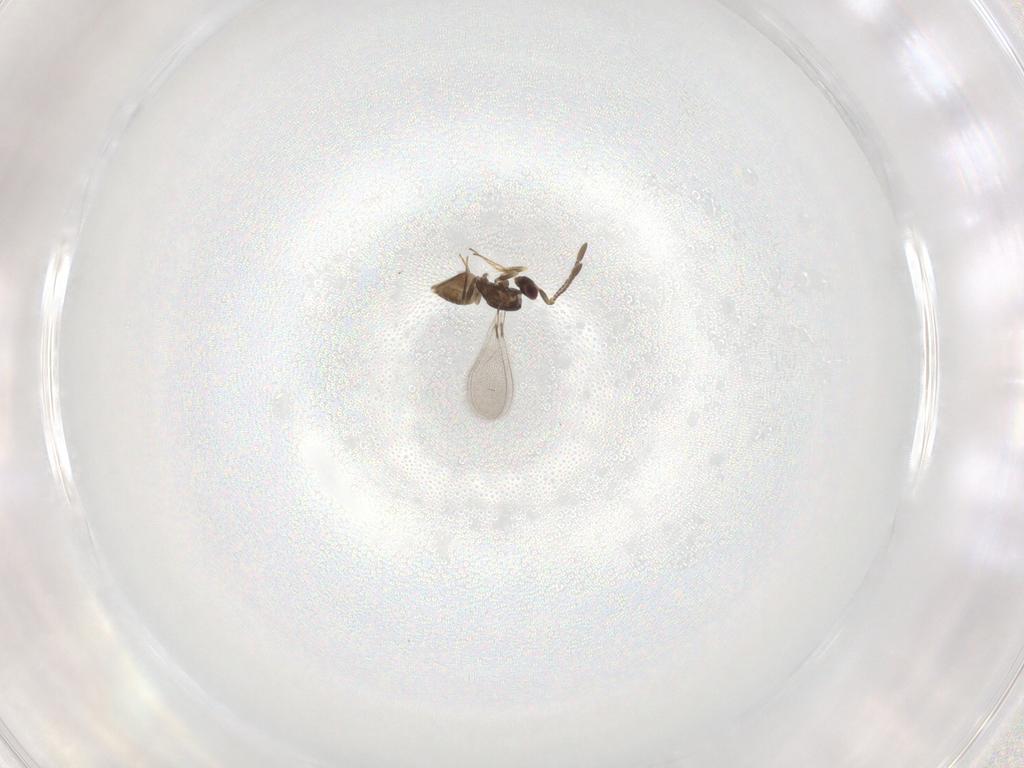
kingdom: Animalia
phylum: Arthropoda
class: Insecta
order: Hymenoptera
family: Mymaridae
